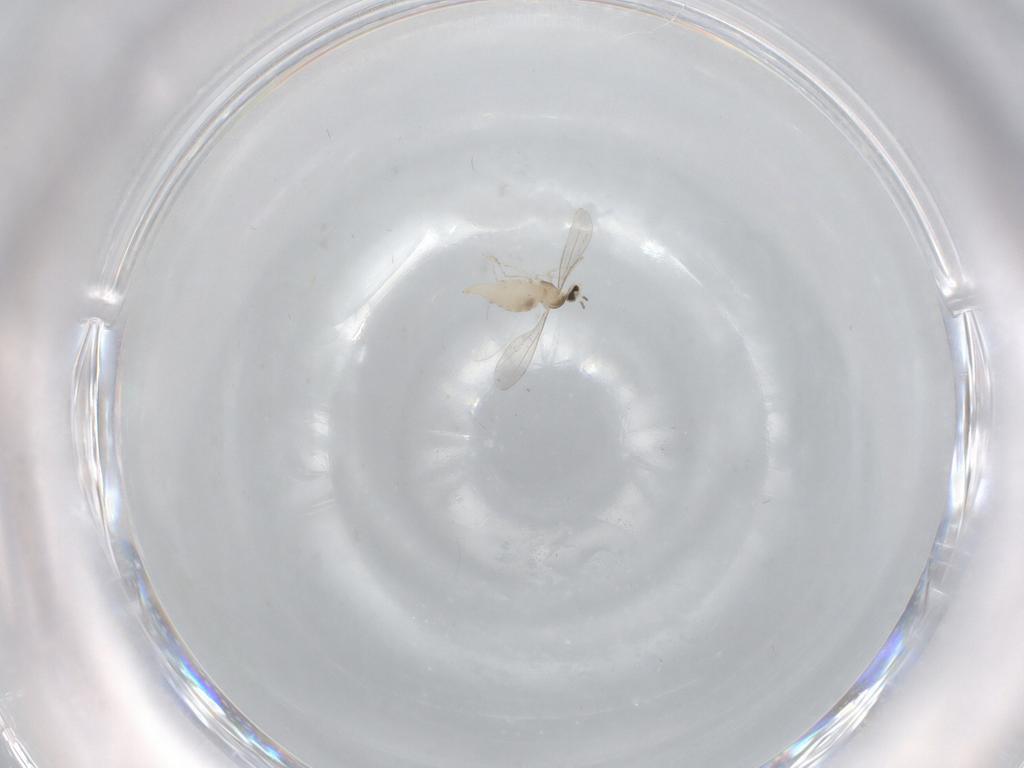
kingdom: Animalia
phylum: Arthropoda
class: Insecta
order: Diptera
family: Cecidomyiidae
